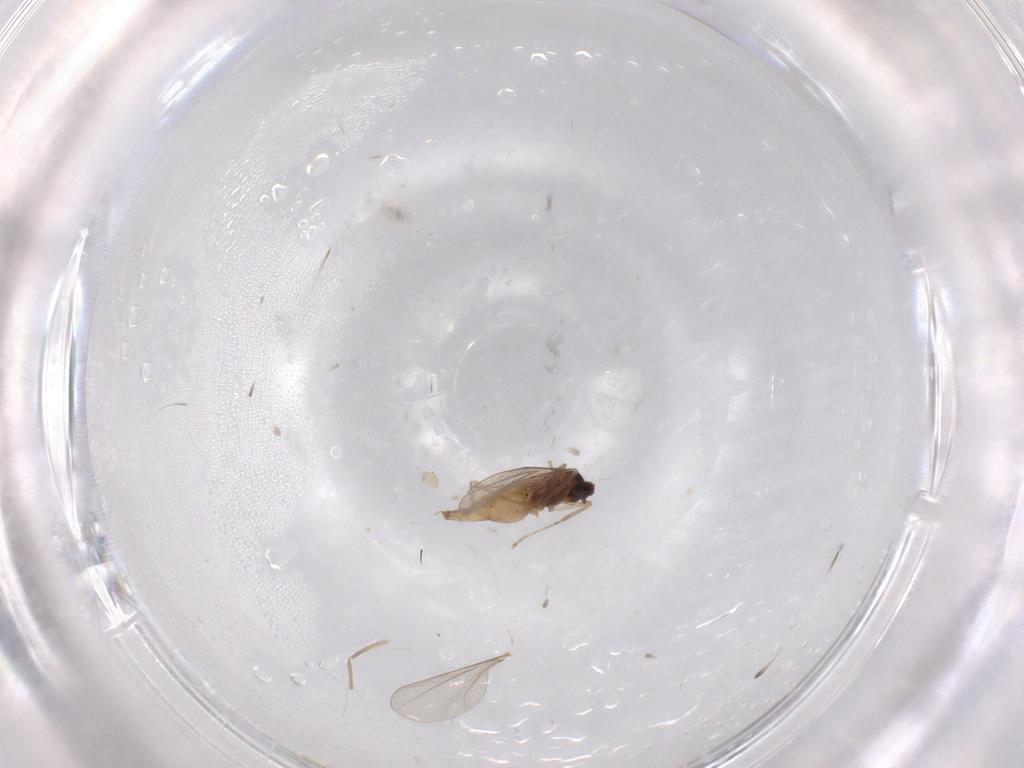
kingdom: Animalia
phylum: Arthropoda
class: Insecta
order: Diptera
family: Cecidomyiidae
